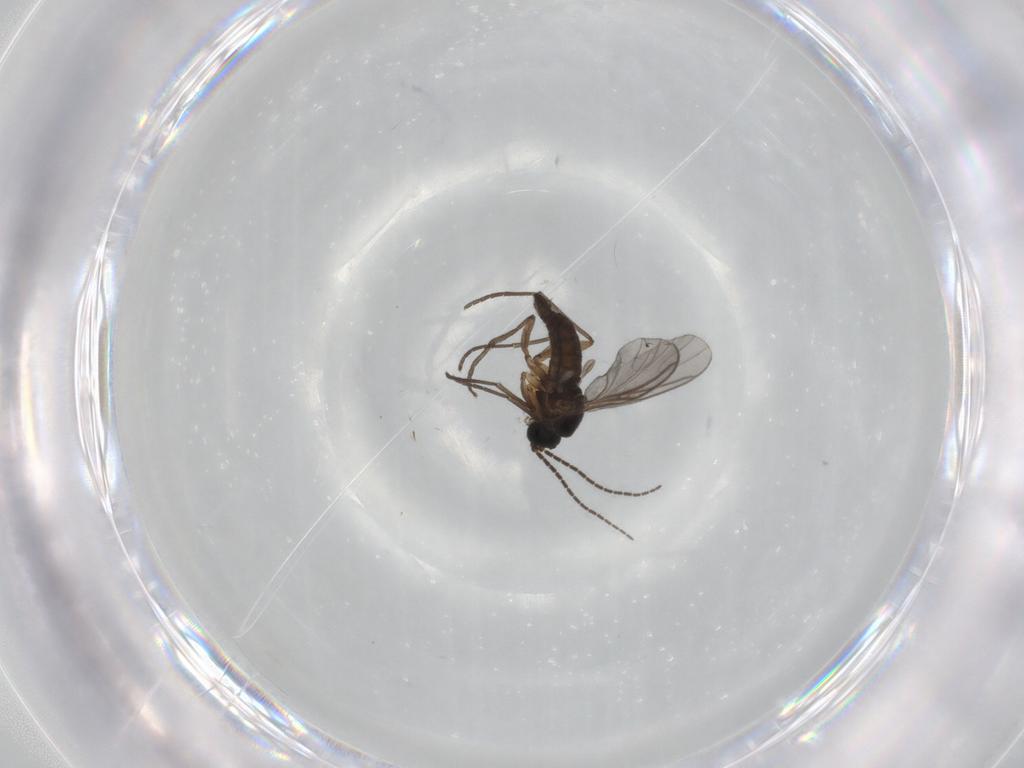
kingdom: Animalia
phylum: Arthropoda
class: Insecta
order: Diptera
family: Sciaridae
